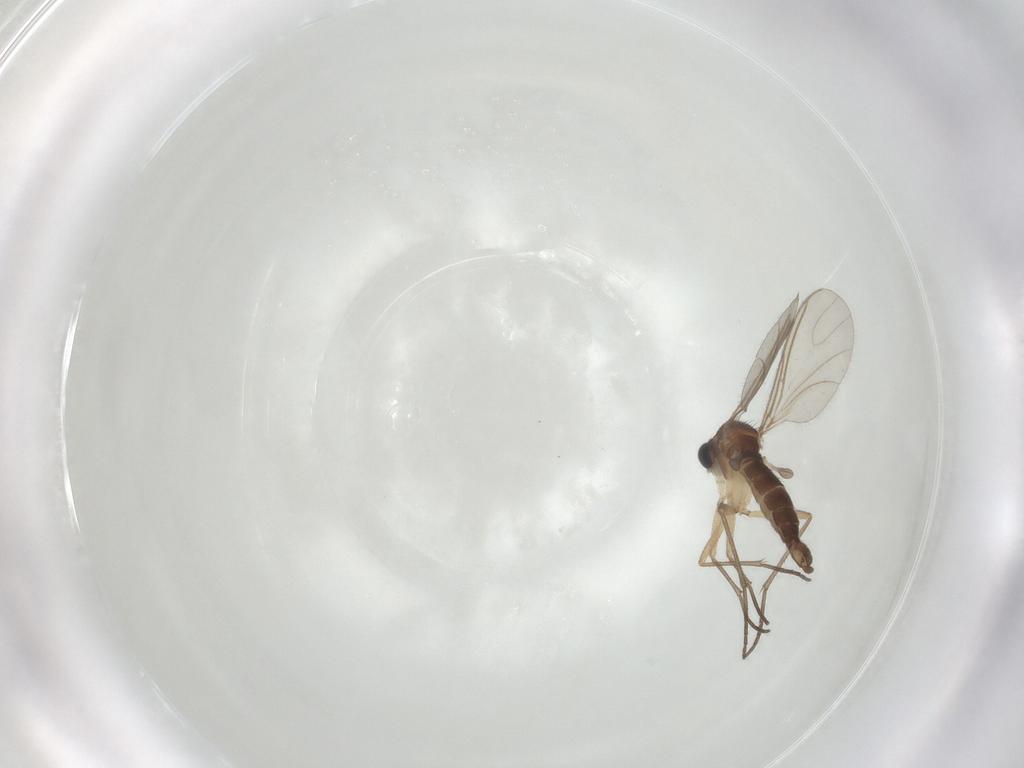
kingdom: Animalia
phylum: Arthropoda
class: Insecta
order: Diptera
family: Sciaridae
